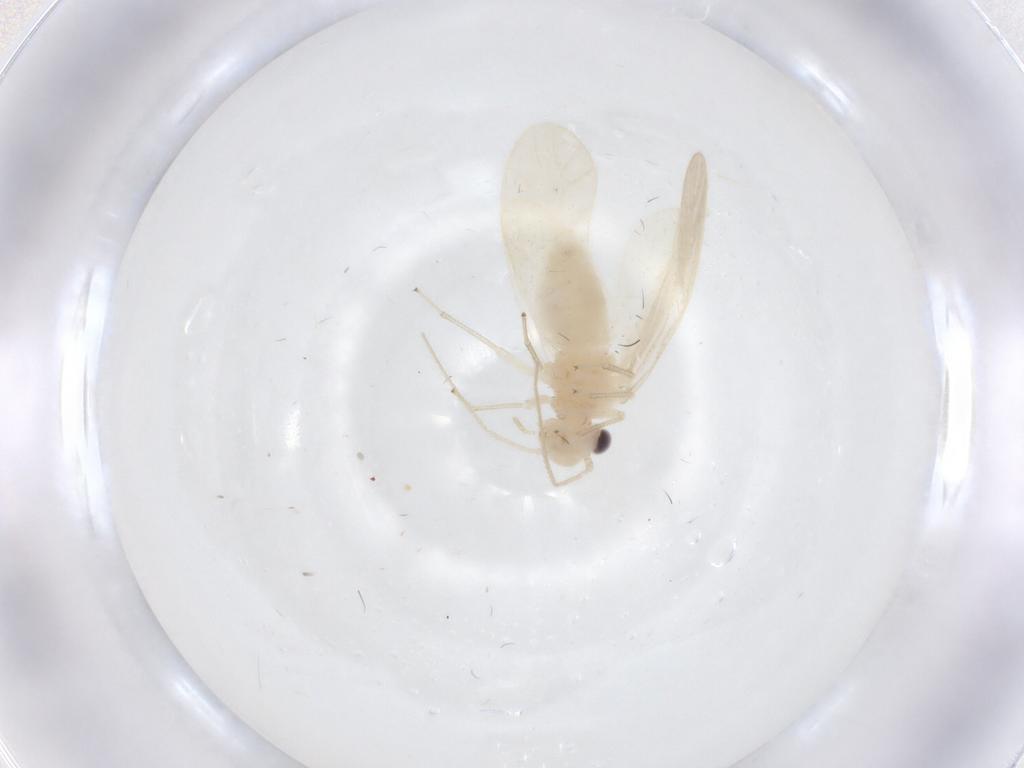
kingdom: Animalia
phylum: Arthropoda
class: Insecta
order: Psocodea
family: Caeciliusidae
